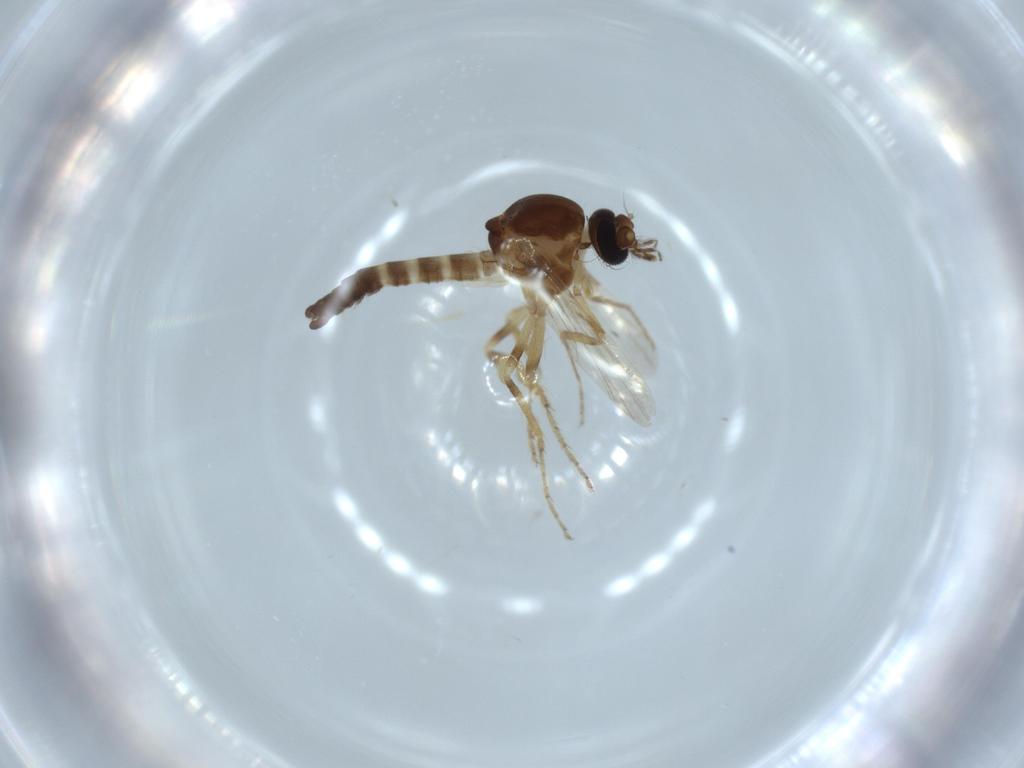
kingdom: Animalia
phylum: Arthropoda
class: Insecta
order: Diptera
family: Ceratopogonidae
